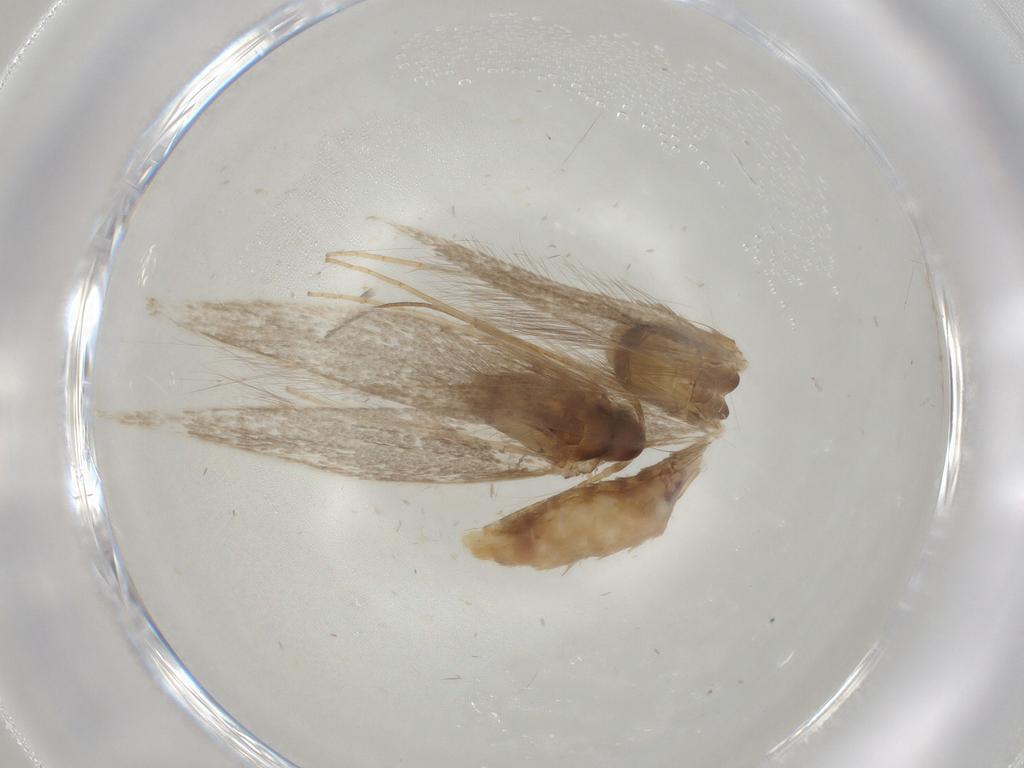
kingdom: Animalia
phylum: Arthropoda
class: Insecta
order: Lepidoptera
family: Coleophoridae
